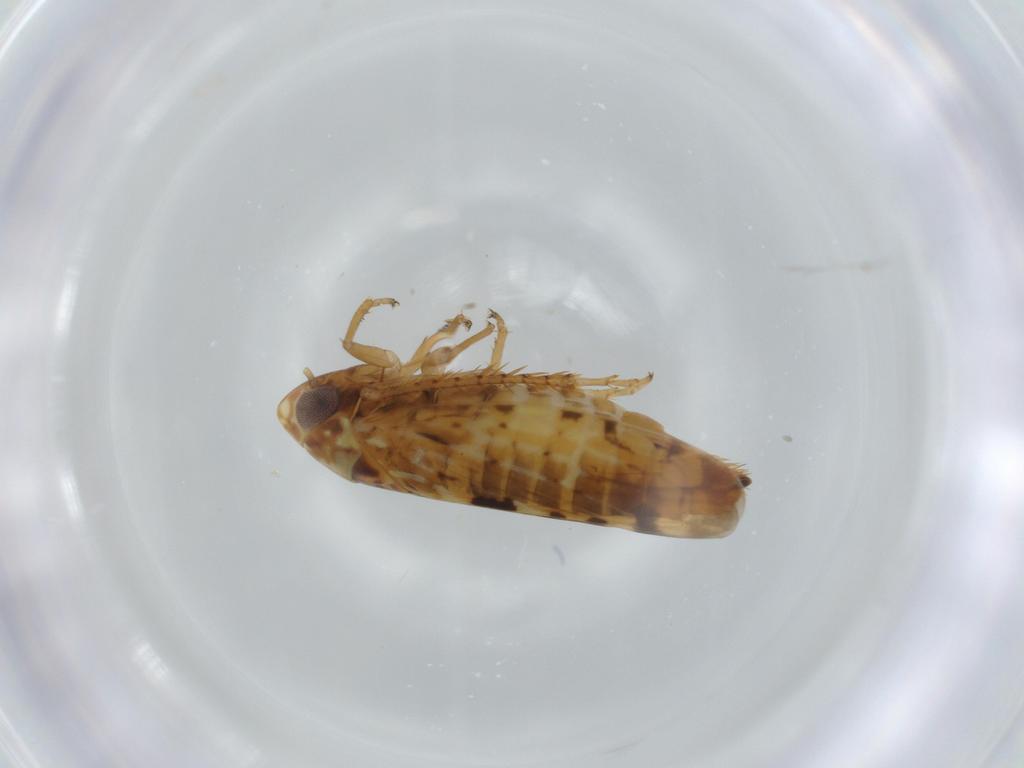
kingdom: Animalia
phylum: Arthropoda
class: Insecta
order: Hemiptera
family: Cicadellidae
